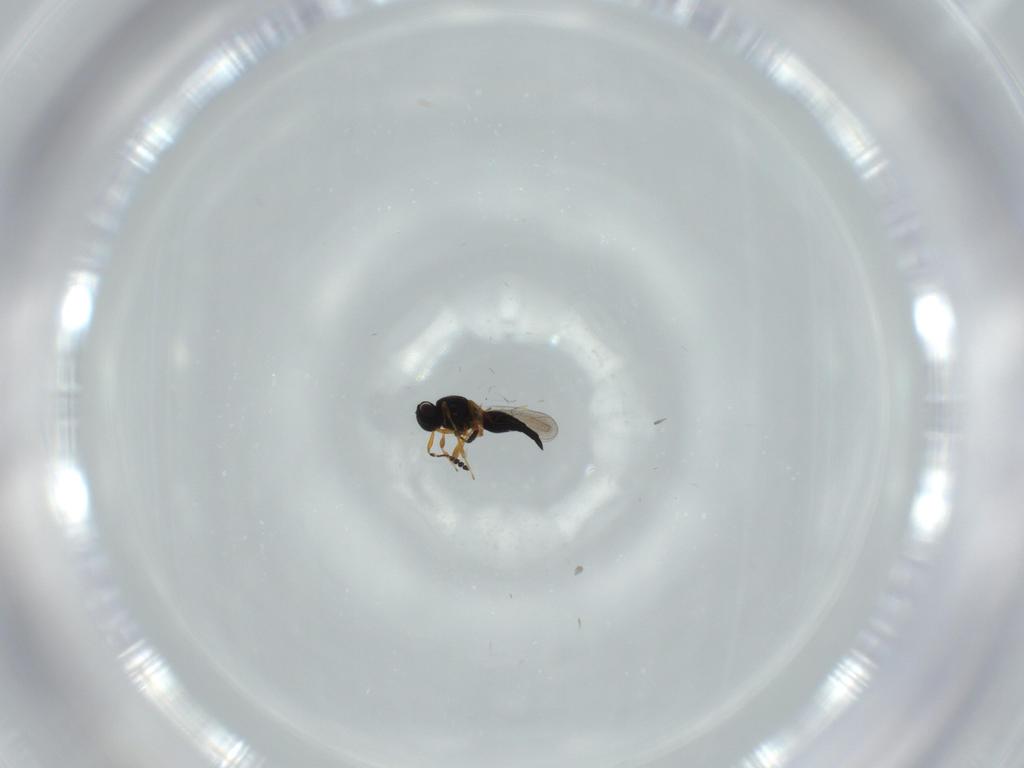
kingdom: Animalia
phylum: Arthropoda
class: Insecta
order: Hymenoptera
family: Platygastridae
